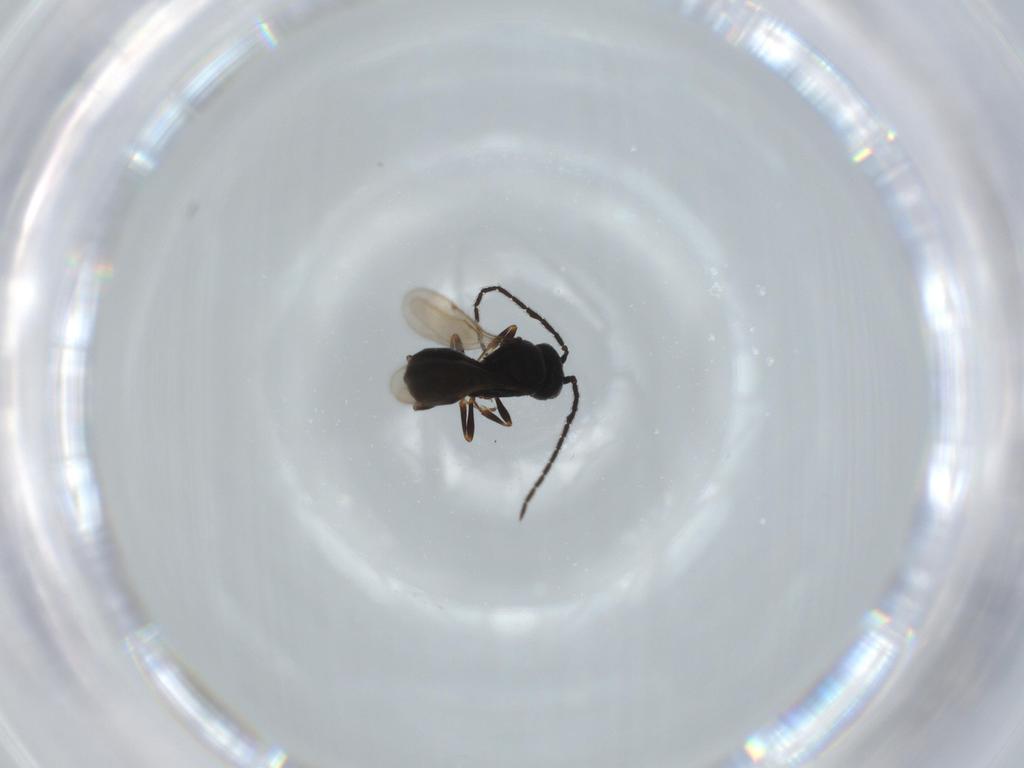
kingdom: Animalia
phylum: Arthropoda
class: Insecta
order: Hymenoptera
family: Scelionidae
